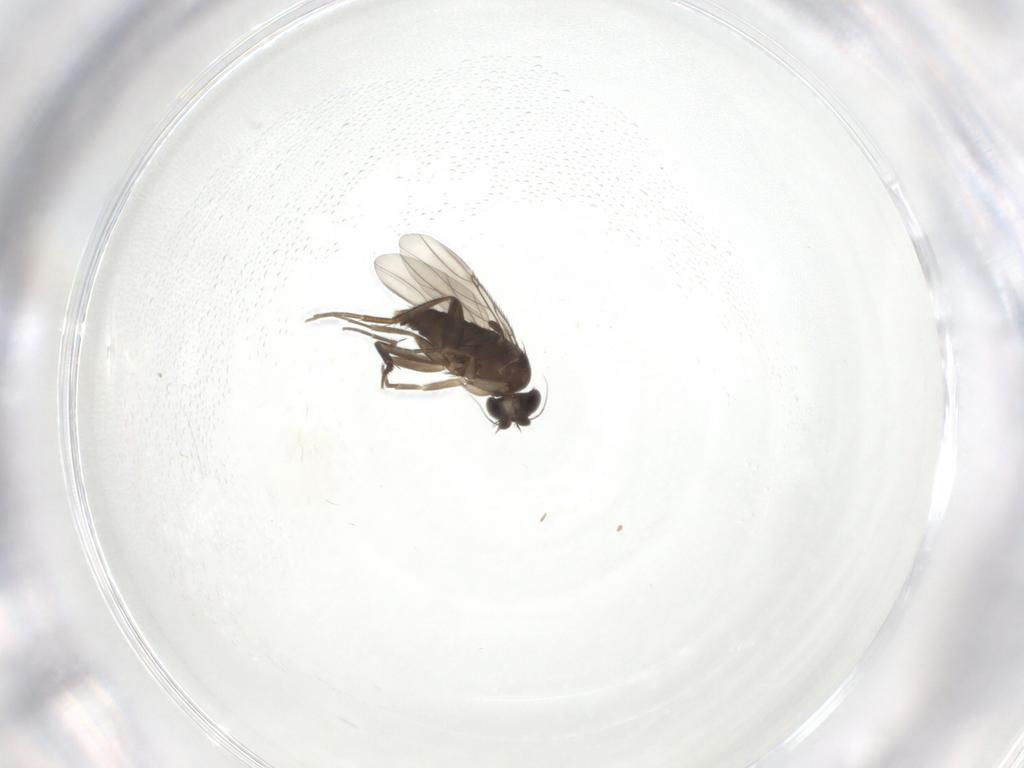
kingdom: Animalia
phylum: Arthropoda
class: Insecta
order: Diptera
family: Phoridae
